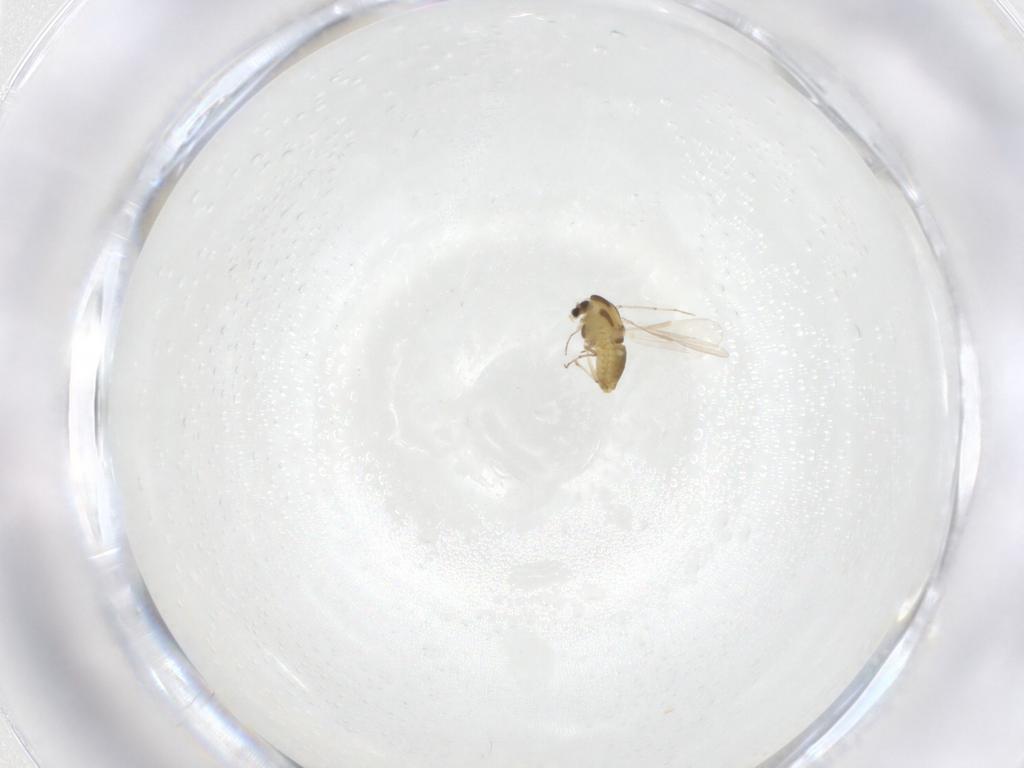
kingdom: Animalia
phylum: Arthropoda
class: Insecta
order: Diptera
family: Chironomidae
